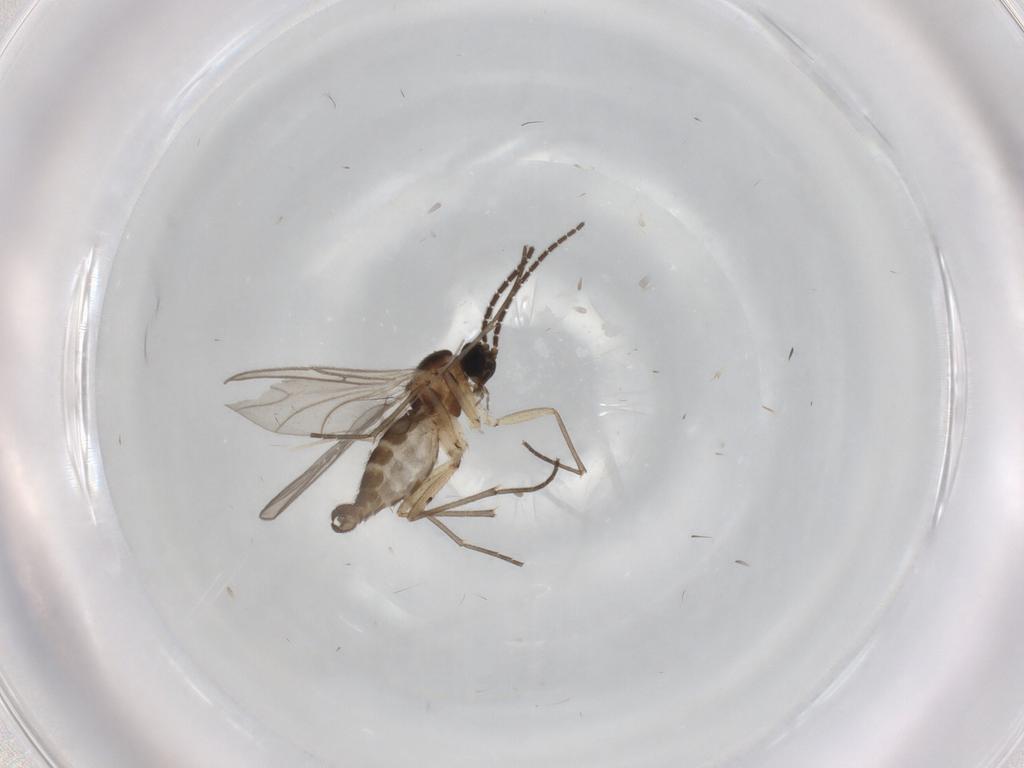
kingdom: Animalia
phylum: Arthropoda
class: Insecta
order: Diptera
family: Sciaridae
